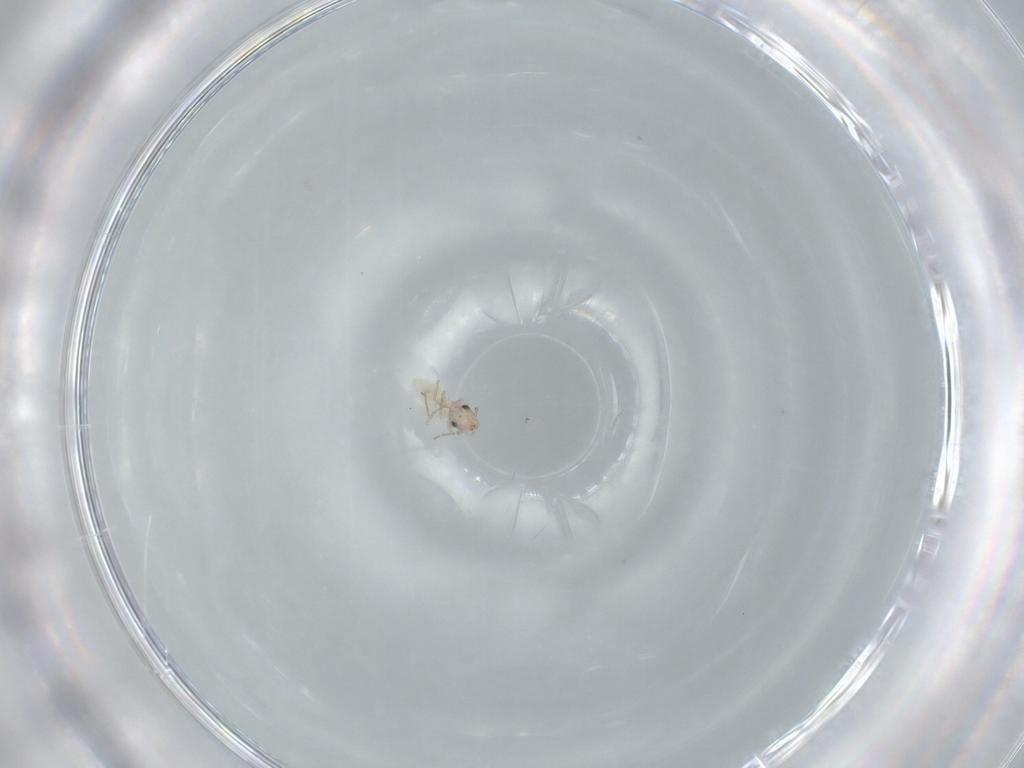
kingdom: Animalia
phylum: Arthropoda
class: Insecta
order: Psocodea
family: Lepidopsocidae
